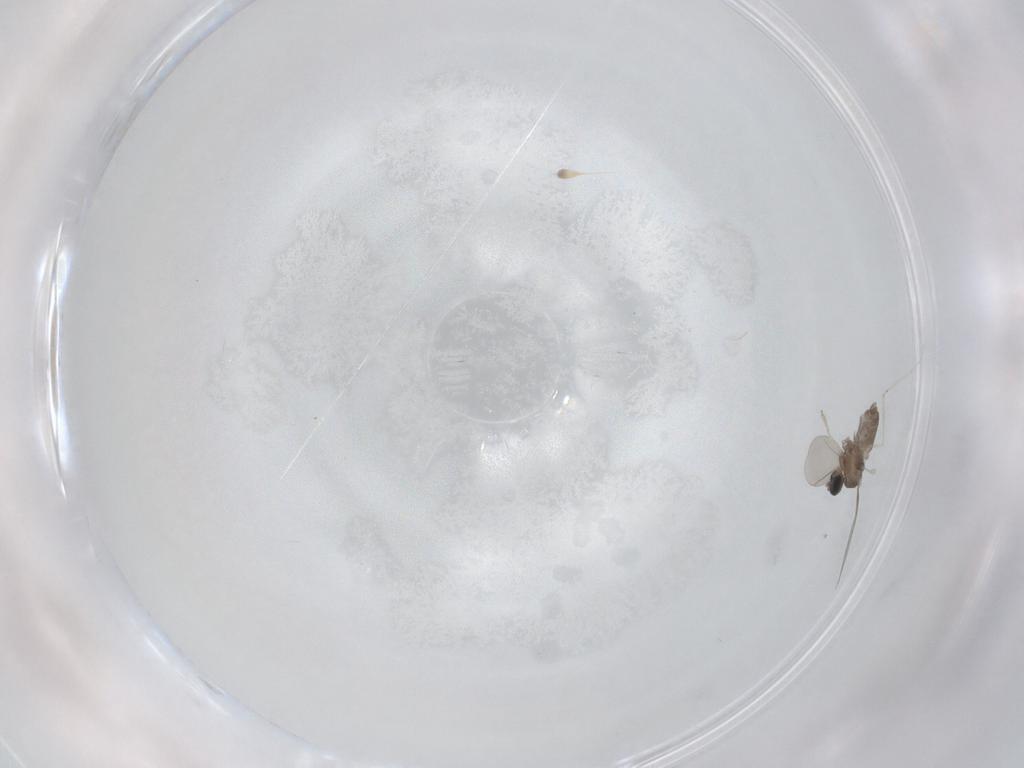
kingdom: Animalia
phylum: Arthropoda
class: Insecta
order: Diptera
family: Cecidomyiidae
